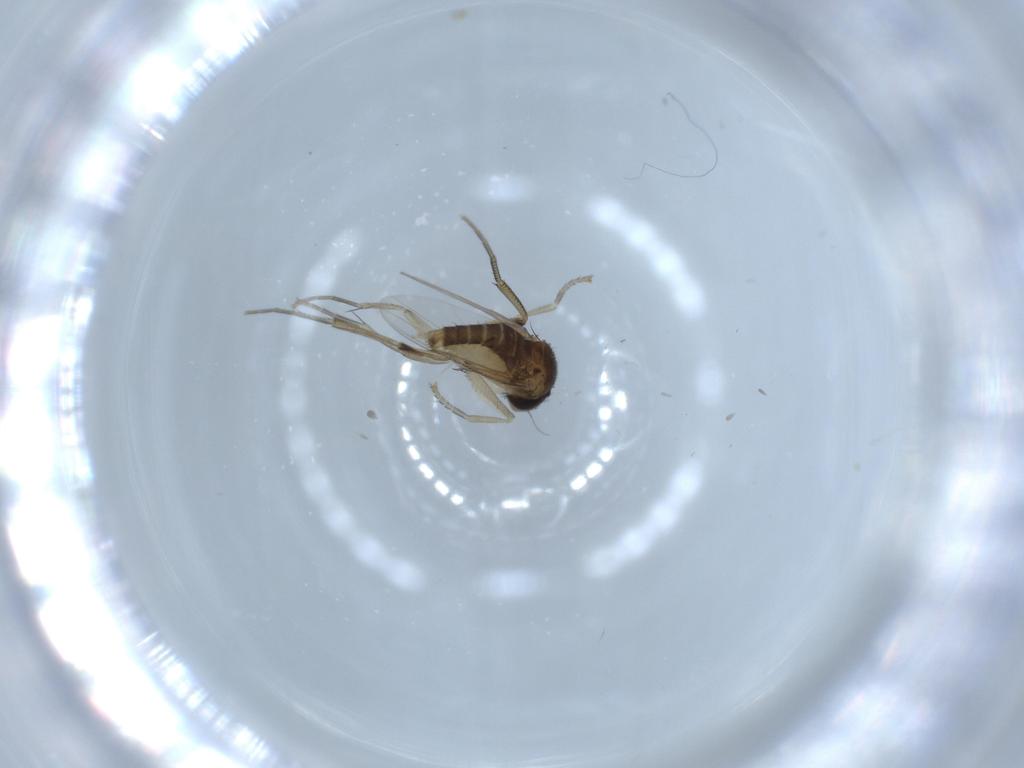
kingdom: Animalia
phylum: Arthropoda
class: Insecta
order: Diptera
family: Phoridae
